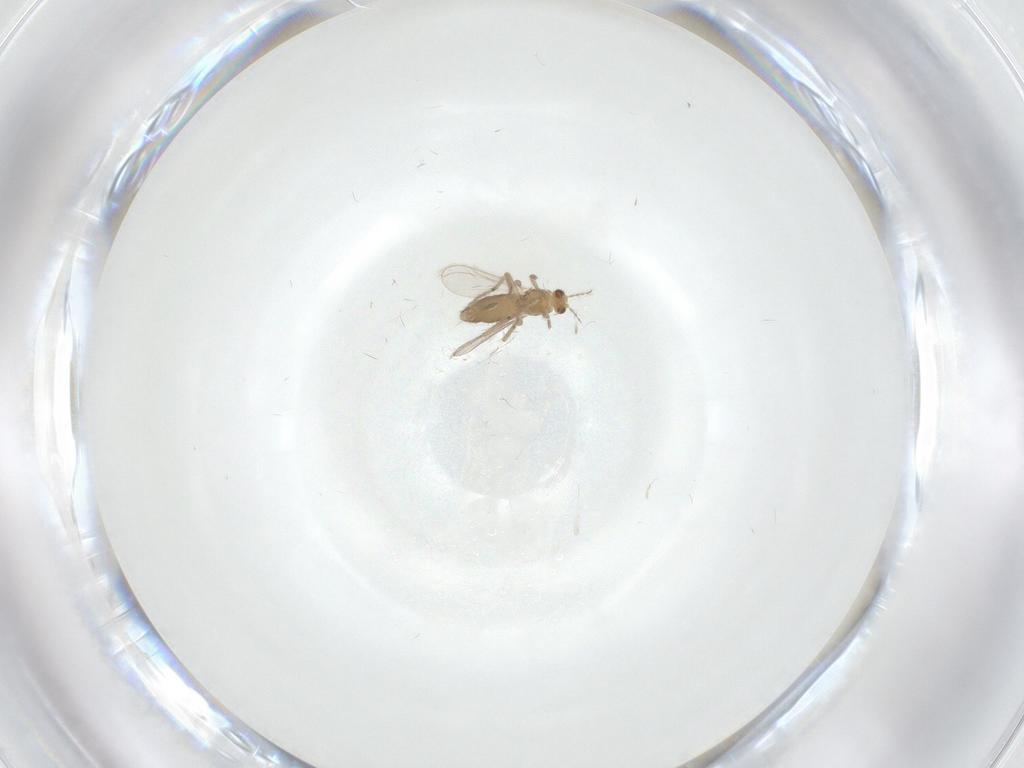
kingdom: Animalia
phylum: Arthropoda
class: Insecta
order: Diptera
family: Chironomidae
